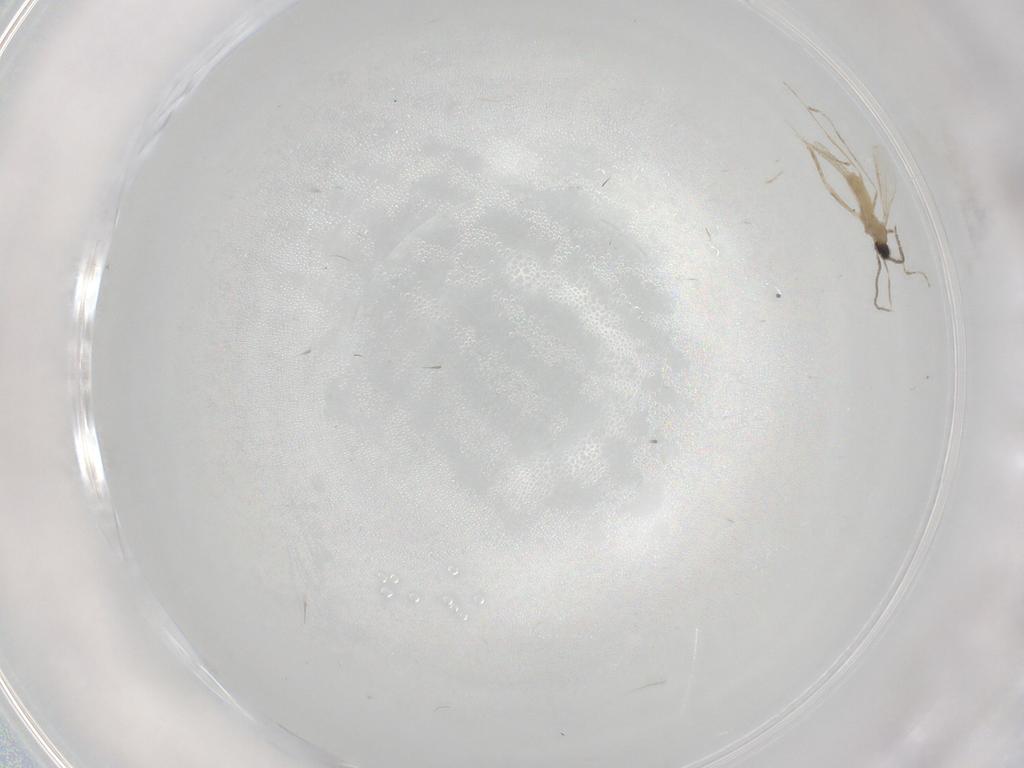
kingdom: Animalia
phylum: Arthropoda
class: Insecta
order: Diptera
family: Cecidomyiidae
